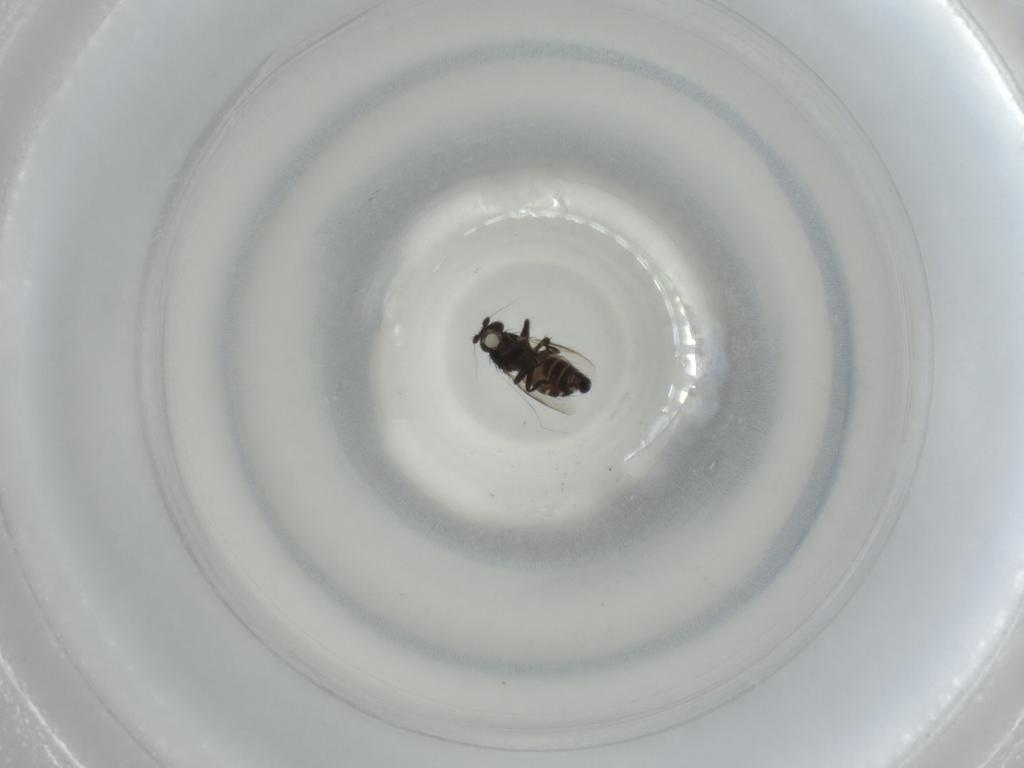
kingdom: Animalia
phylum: Arthropoda
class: Insecta
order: Diptera
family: Sphaeroceridae
